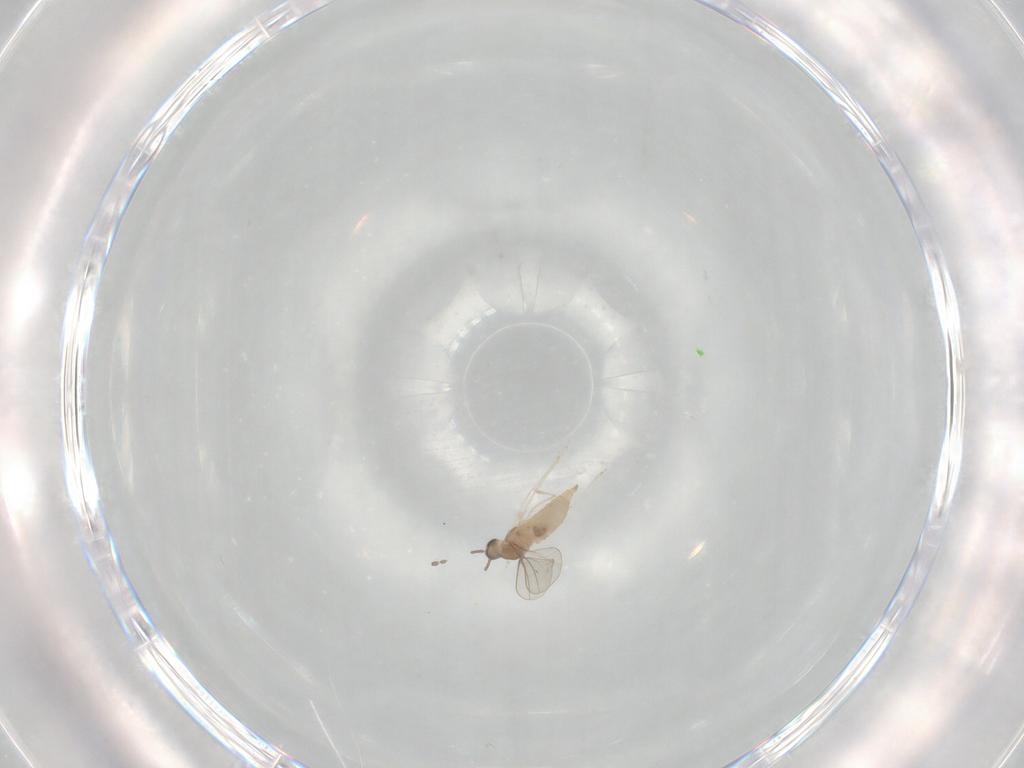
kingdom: Animalia
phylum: Arthropoda
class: Insecta
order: Diptera
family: Cecidomyiidae
